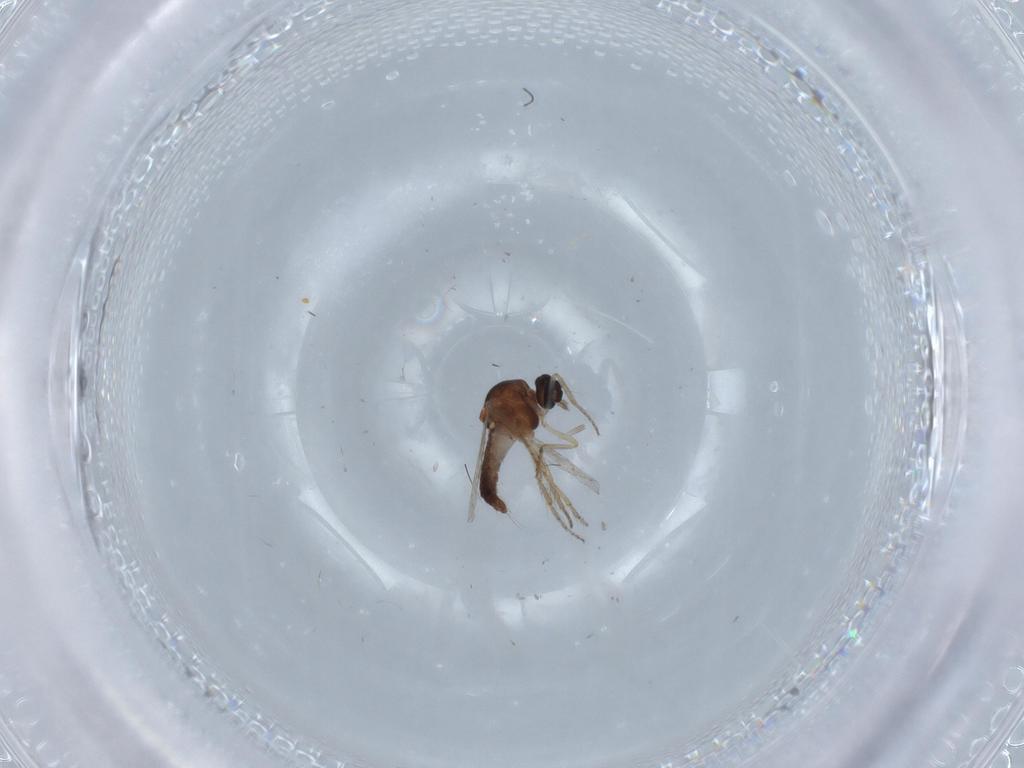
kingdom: Animalia
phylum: Arthropoda
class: Insecta
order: Diptera
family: Ceratopogonidae
